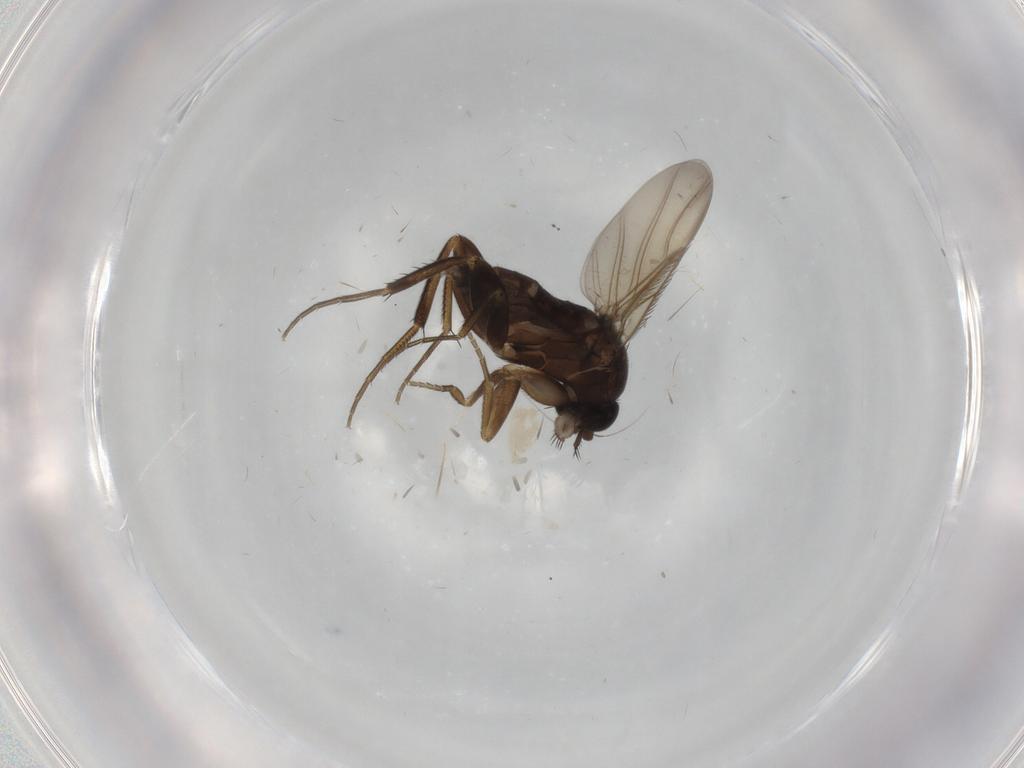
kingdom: Animalia
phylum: Arthropoda
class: Insecta
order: Diptera
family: Phoridae
